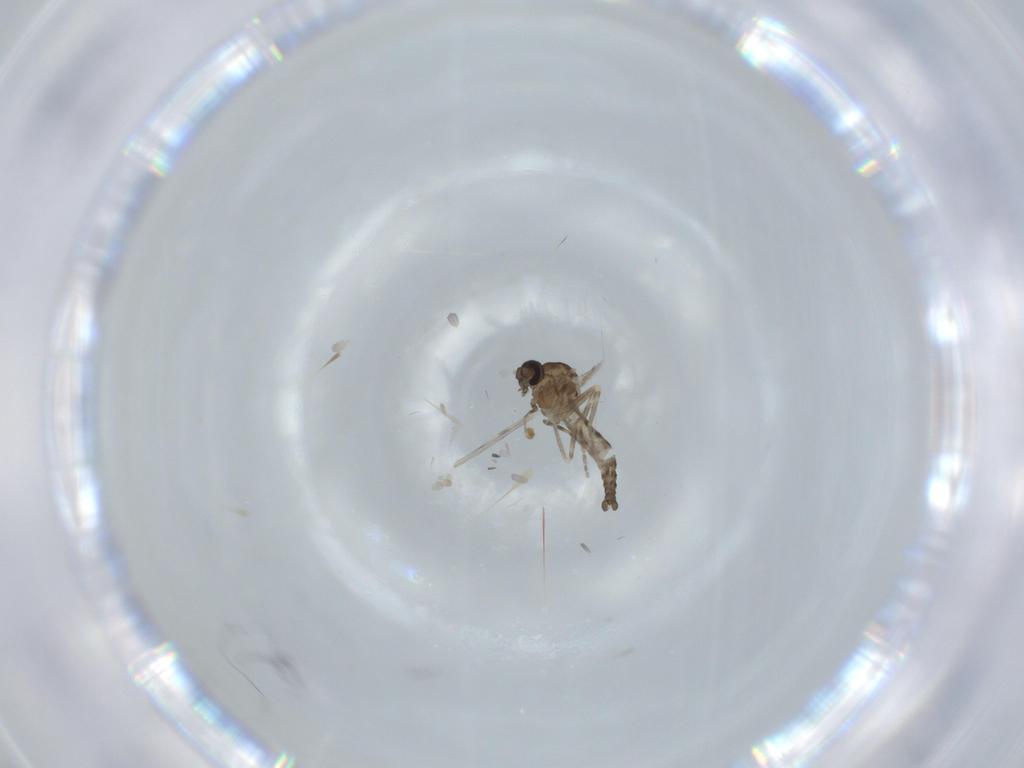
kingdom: Animalia
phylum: Arthropoda
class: Insecta
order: Diptera
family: Ceratopogonidae
